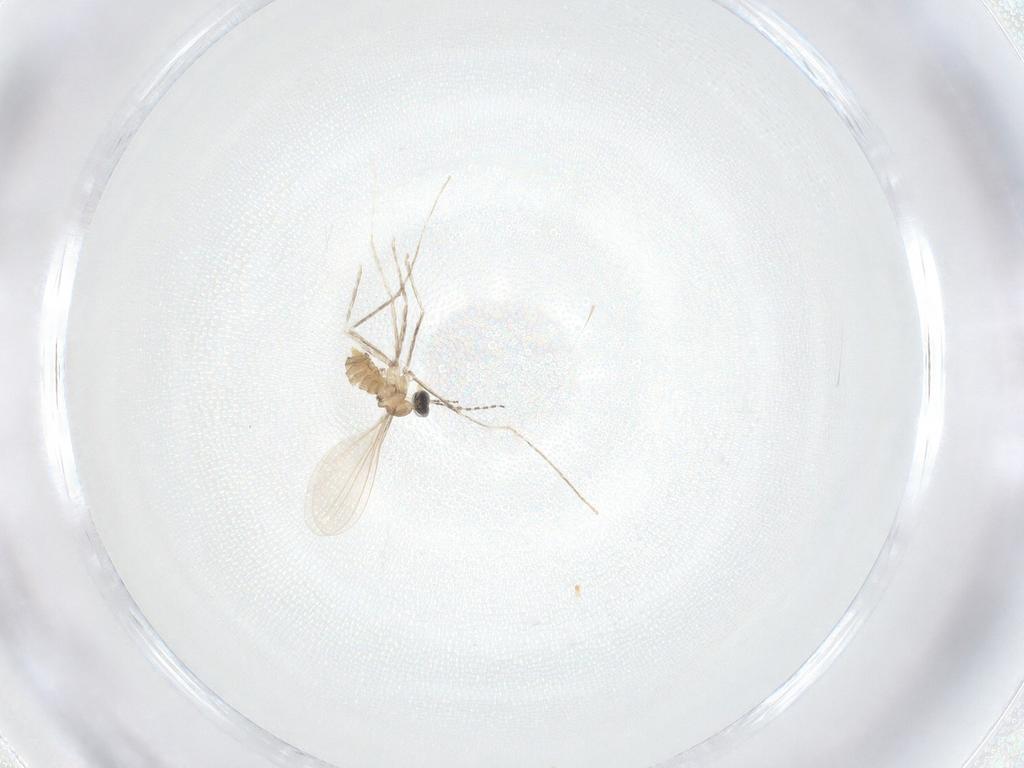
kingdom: Animalia
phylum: Arthropoda
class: Insecta
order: Diptera
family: Cecidomyiidae
